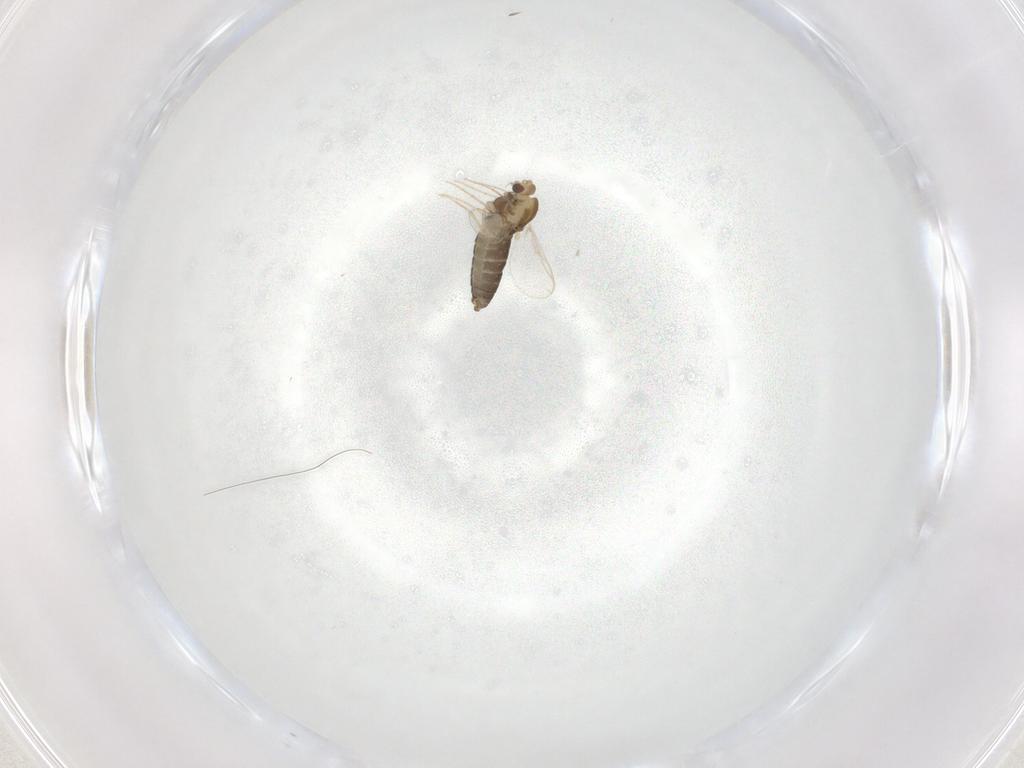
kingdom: Animalia
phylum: Arthropoda
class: Insecta
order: Diptera
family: Chironomidae
